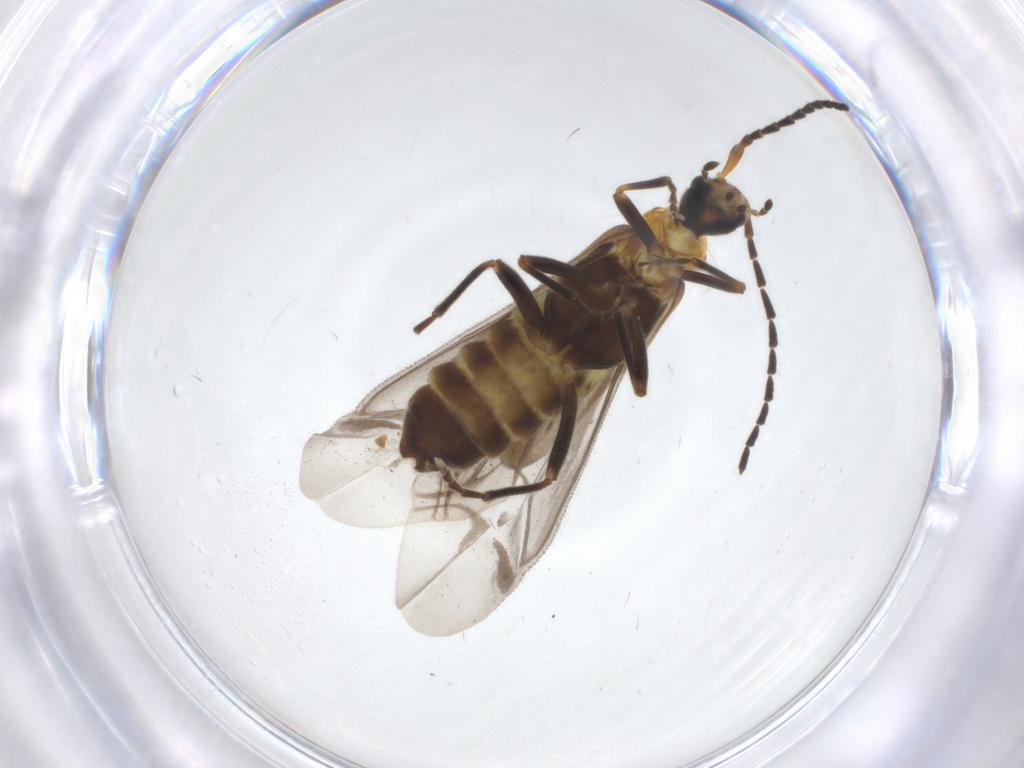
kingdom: Animalia
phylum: Arthropoda
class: Insecta
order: Coleoptera
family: Cantharidae
